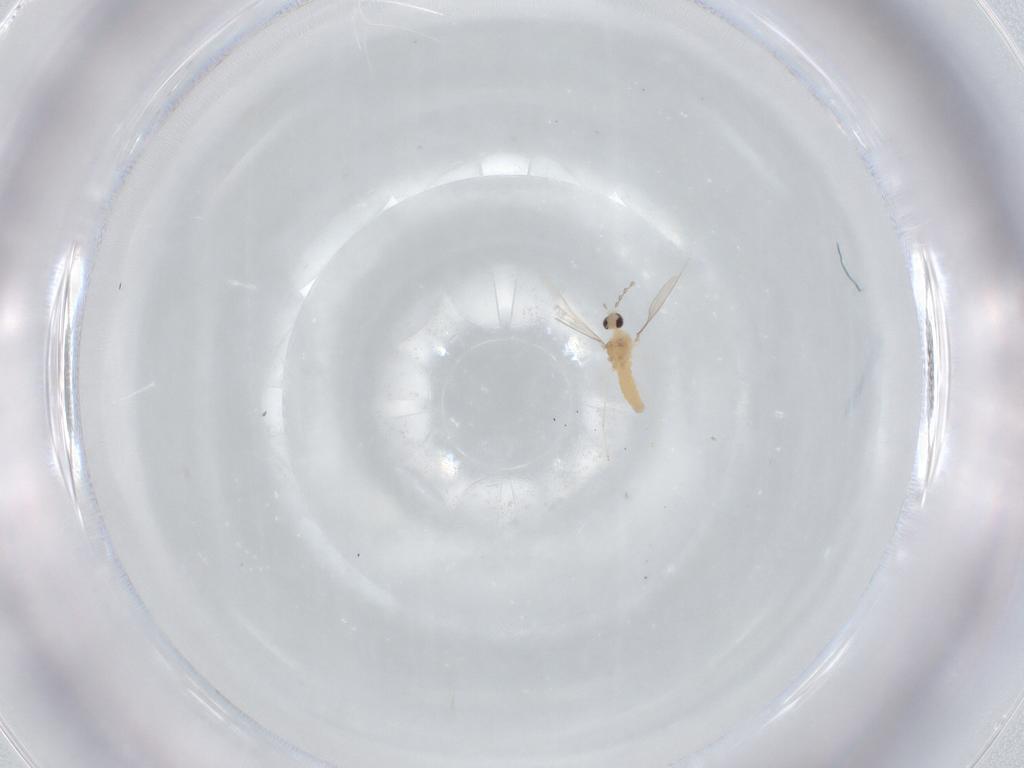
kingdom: Animalia
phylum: Arthropoda
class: Insecta
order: Diptera
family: Cecidomyiidae
